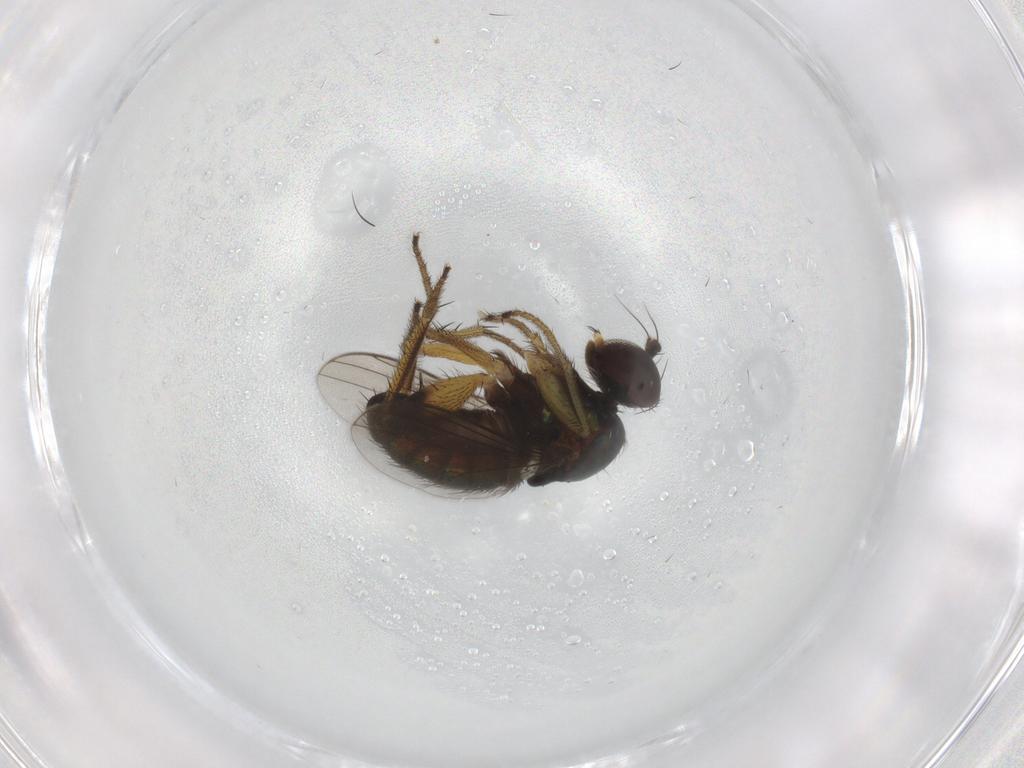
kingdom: Animalia
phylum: Arthropoda
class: Insecta
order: Diptera
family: Dolichopodidae
